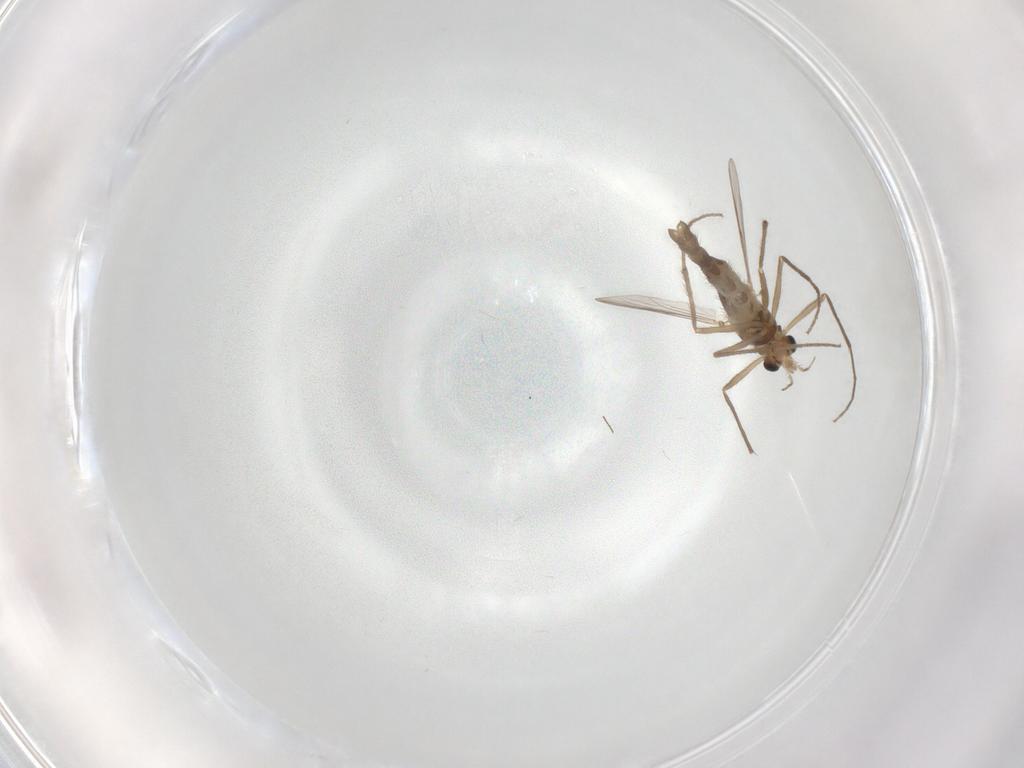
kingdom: Animalia
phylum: Arthropoda
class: Insecta
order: Diptera
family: Chironomidae
